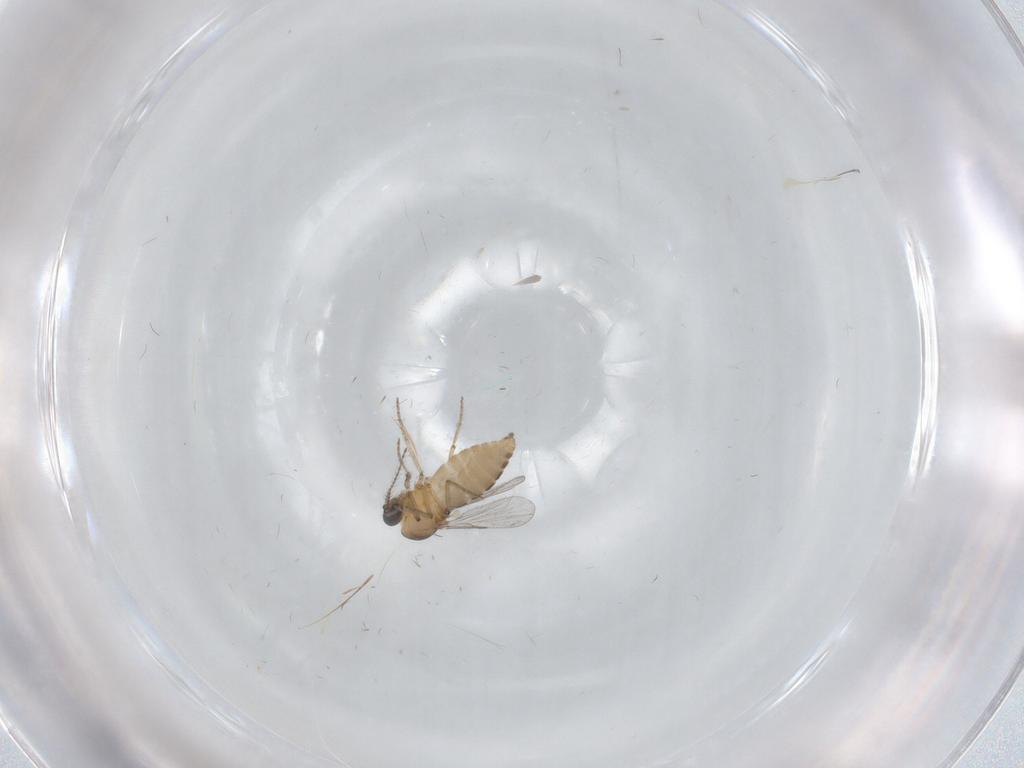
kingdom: Animalia
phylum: Arthropoda
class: Insecta
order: Diptera
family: Ceratopogonidae
